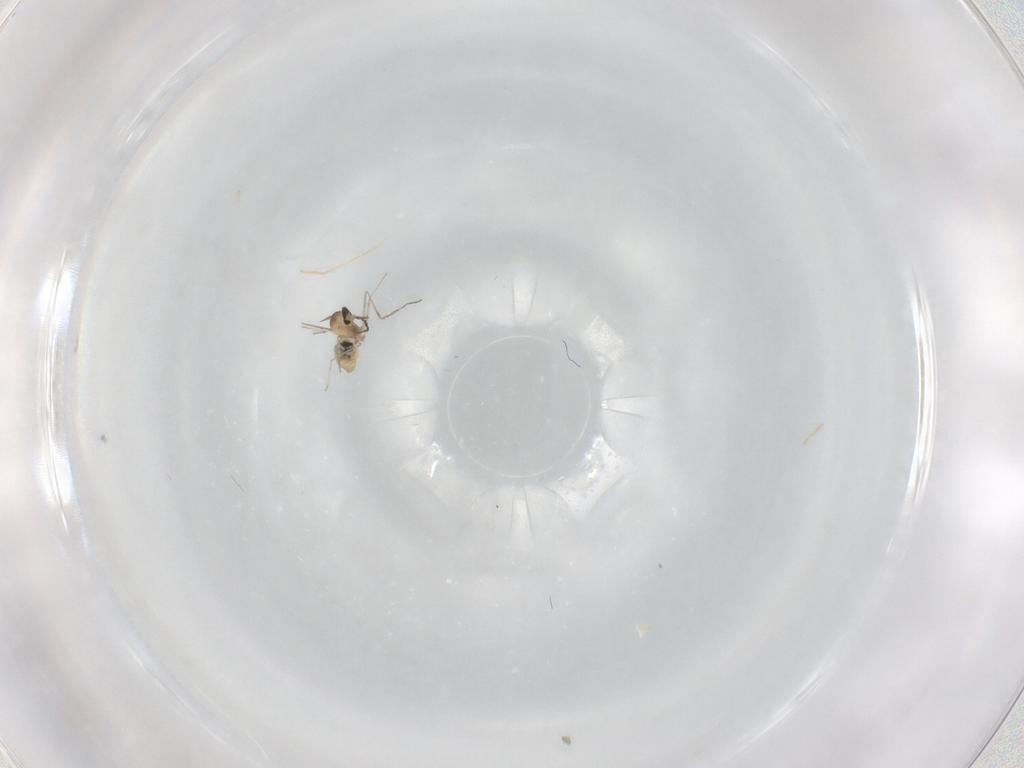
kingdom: Animalia
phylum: Arthropoda
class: Insecta
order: Diptera
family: Cecidomyiidae
